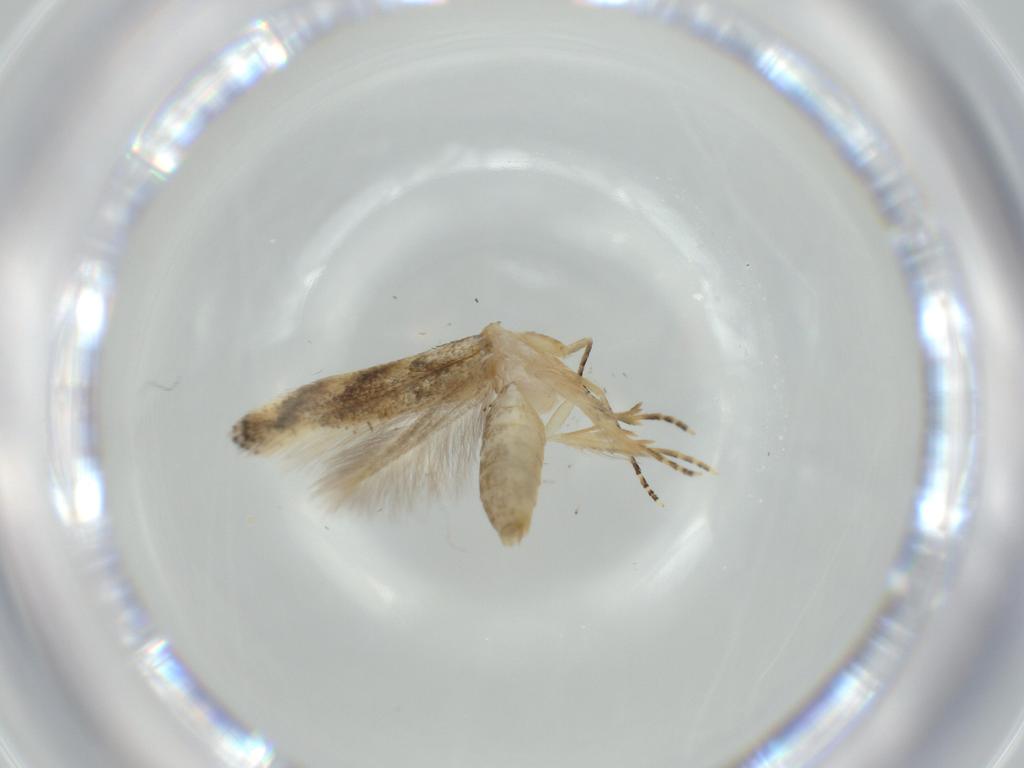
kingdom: Animalia
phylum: Arthropoda
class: Insecta
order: Lepidoptera
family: Bucculatricidae
